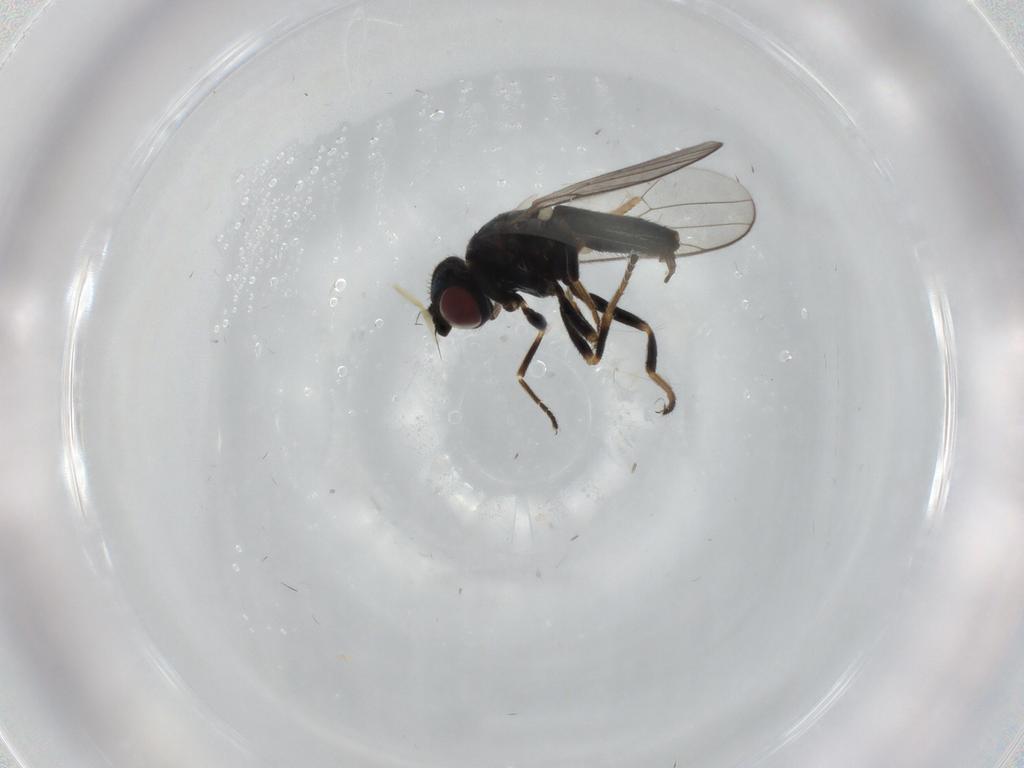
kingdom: Animalia
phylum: Arthropoda
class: Insecta
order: Diptera
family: Chloropidae
